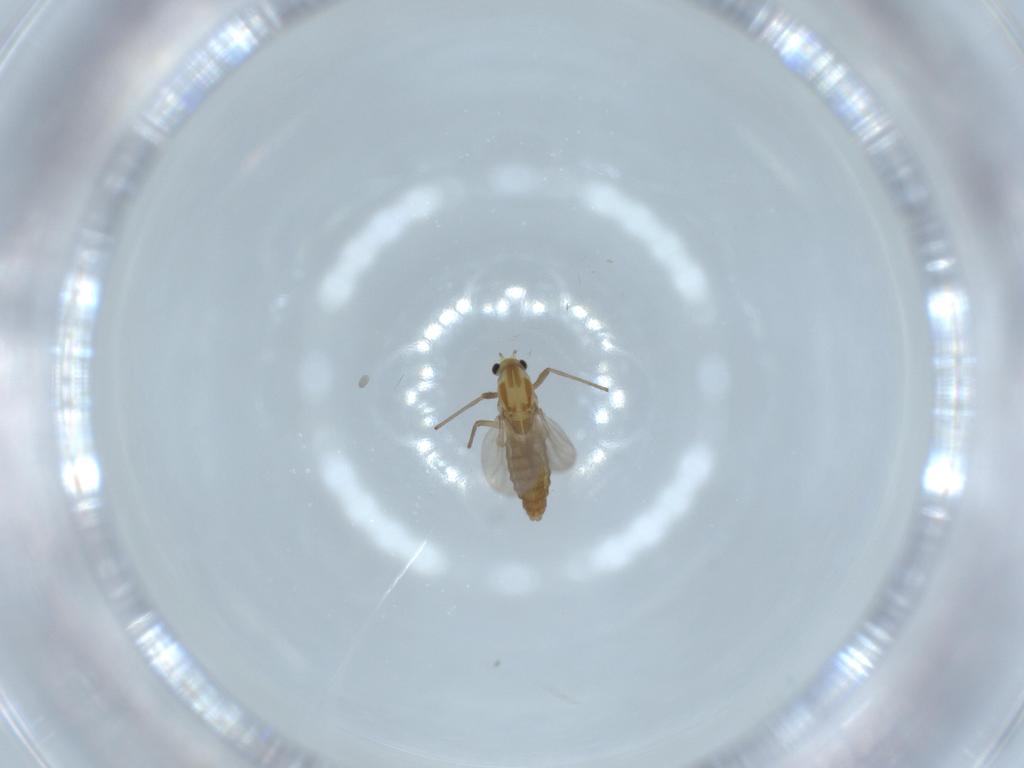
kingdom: Animalia
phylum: Arthropoda
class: Insecta
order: Diptera
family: Chironomidae
